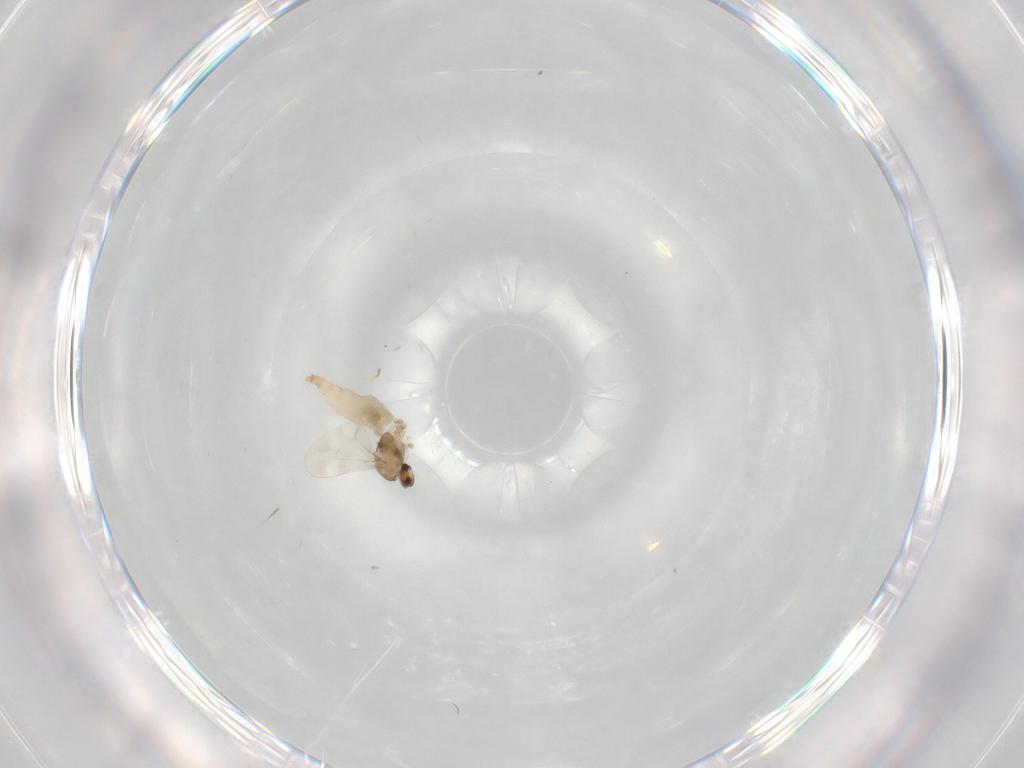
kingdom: Animalia
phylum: Arthropoda
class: Insecta
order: Diptera
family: Cecidomyiidae
